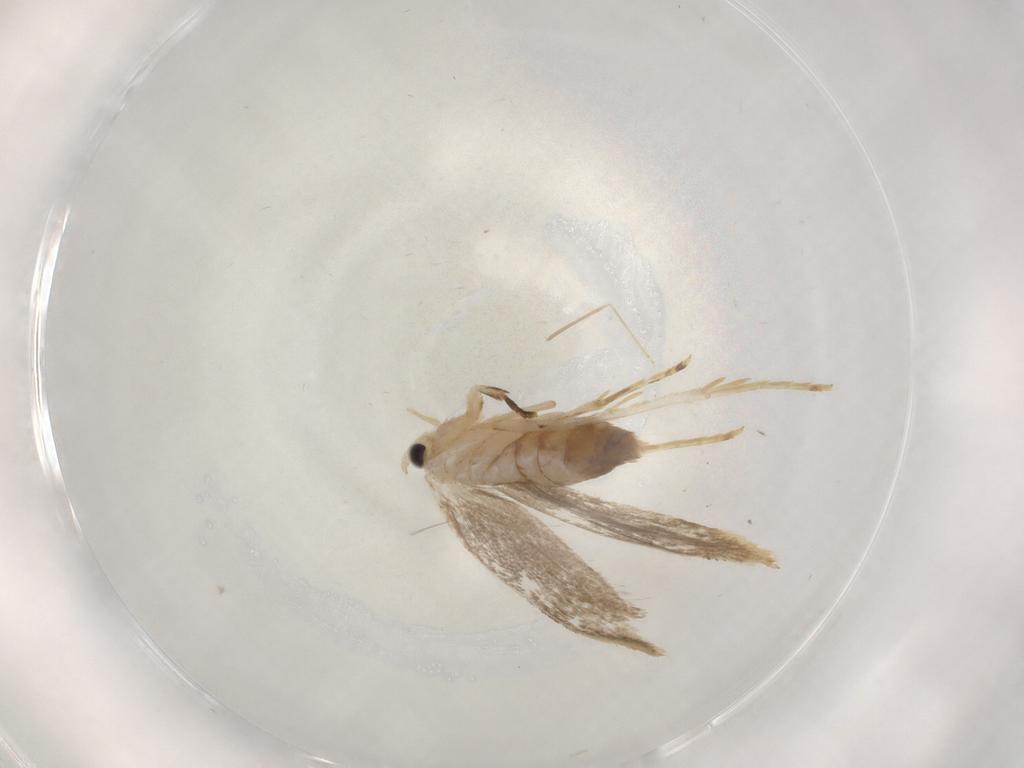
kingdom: Animalia
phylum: Arthropoda
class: Insecta
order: Lepidoptera
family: Dryadaulidae
